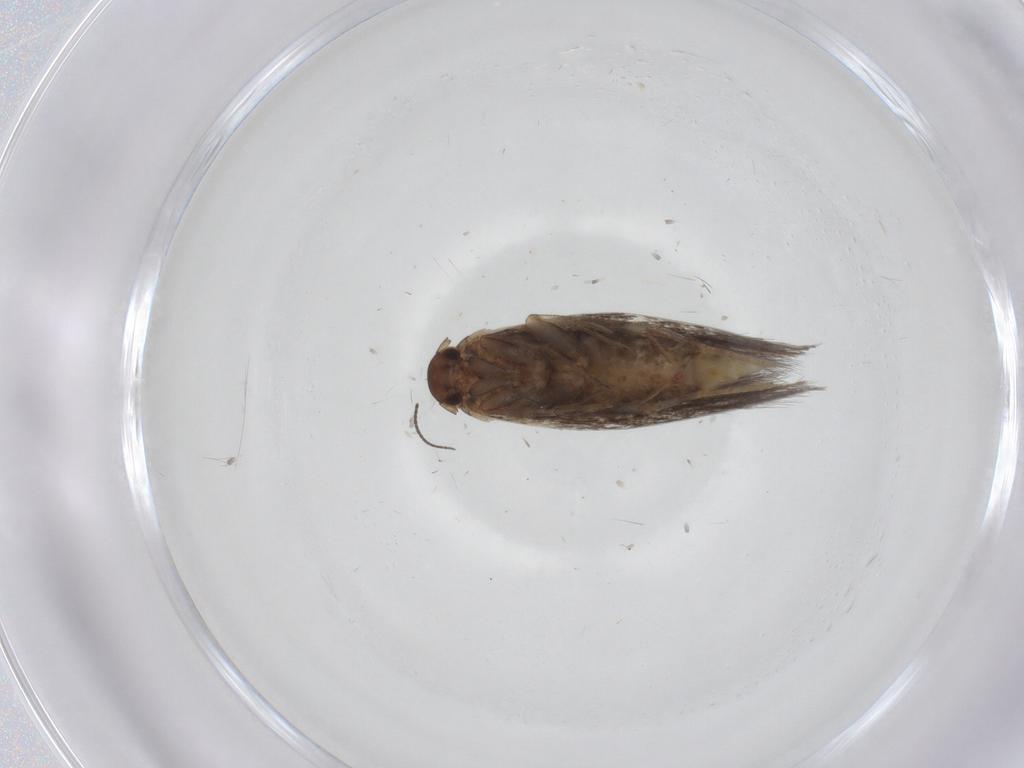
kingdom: Animalia
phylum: Arthropoda
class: Insecta
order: Lepidoptera
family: Elachistidae
